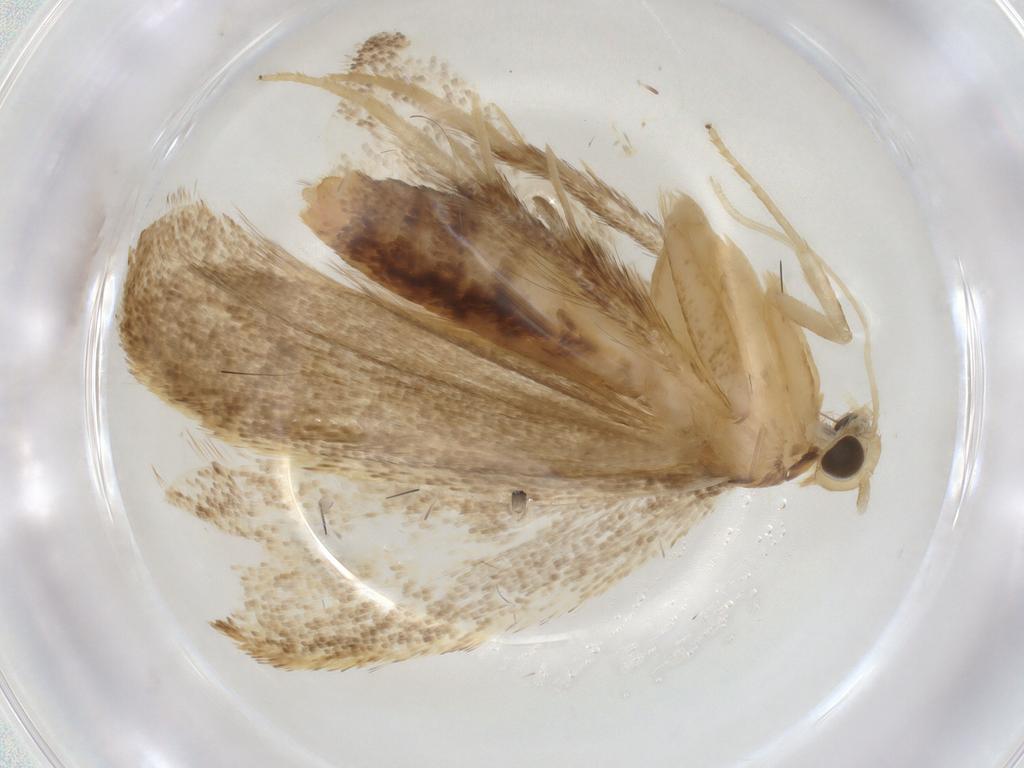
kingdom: Animalia
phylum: Arthropoda
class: Insecta
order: Lepidoptera
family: Lecithoceridae
